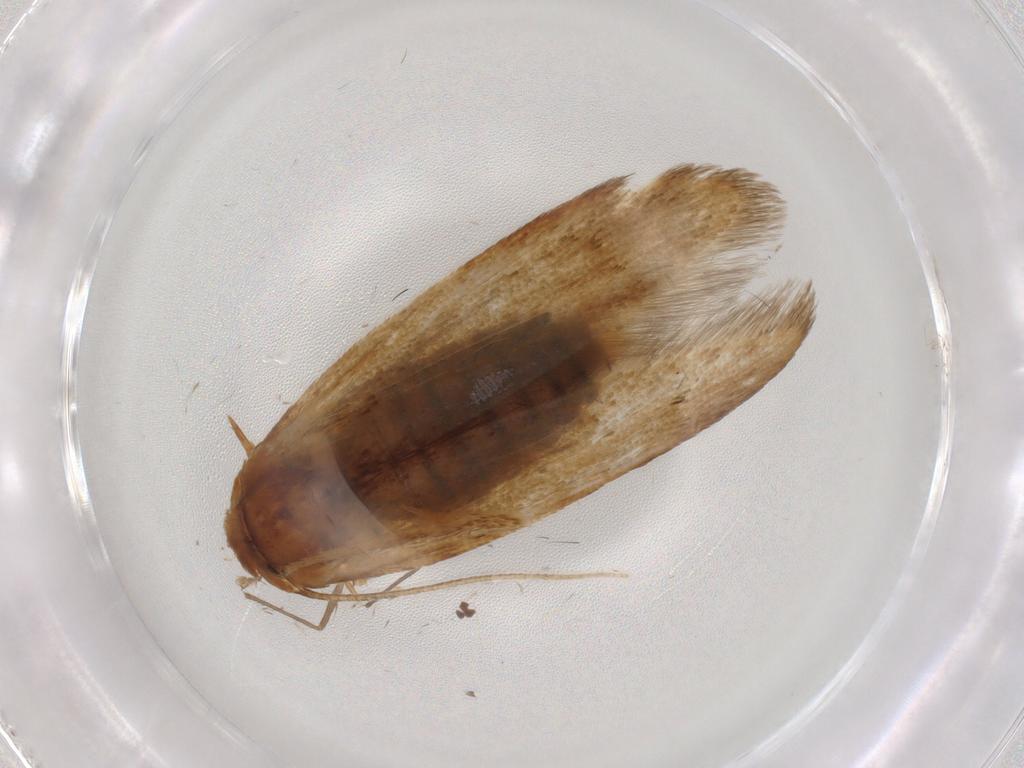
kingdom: Animalia
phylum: Arthropoda
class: Insecta
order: Lepidoptera
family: Blastobasidae
